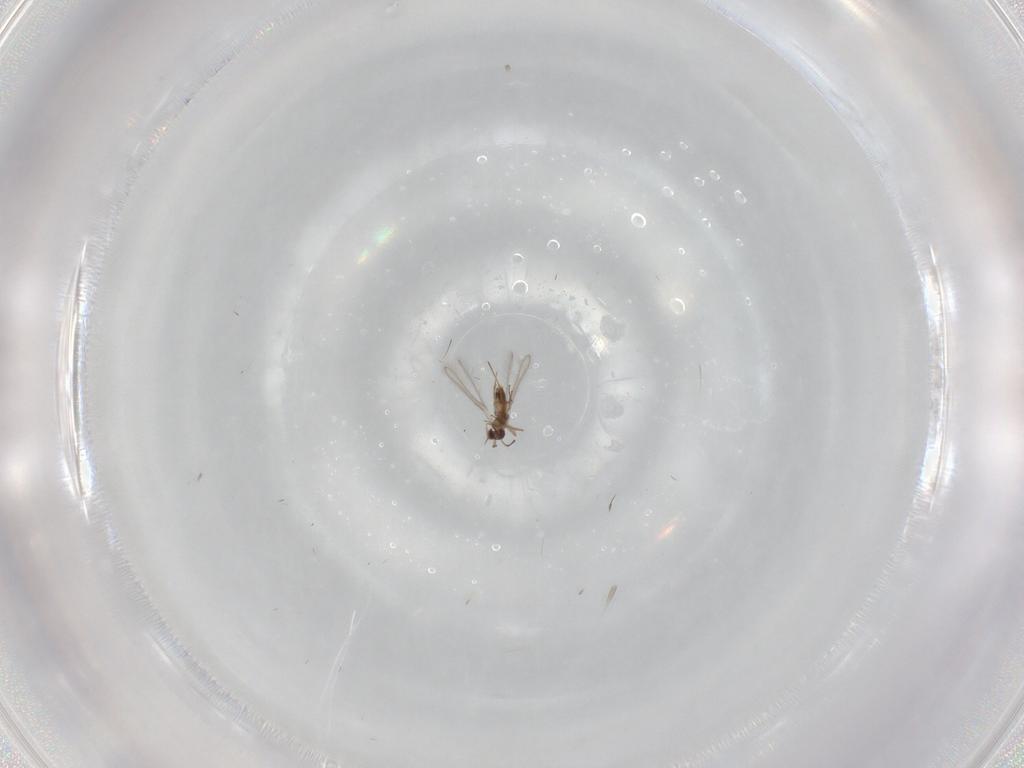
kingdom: Animalia
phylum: Arthropoda
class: Insecta
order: Hymenoptera
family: Mymaridae
